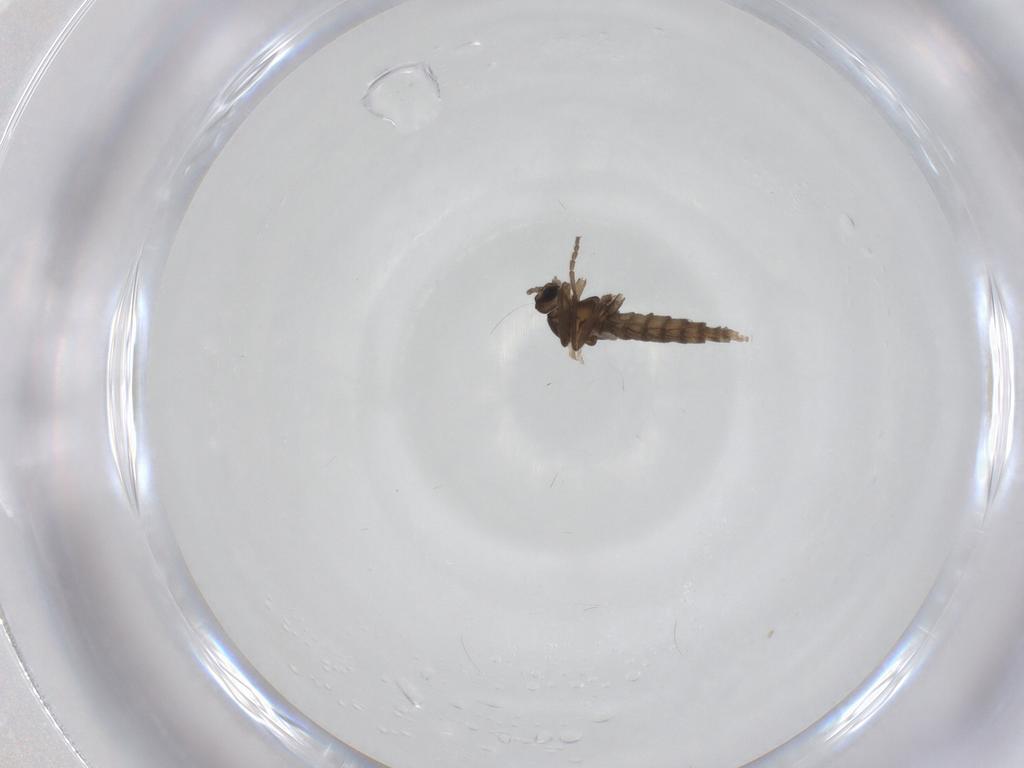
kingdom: Animalia
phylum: Arthropoda
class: Insecta
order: Diptera
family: Cecidomyiidae
